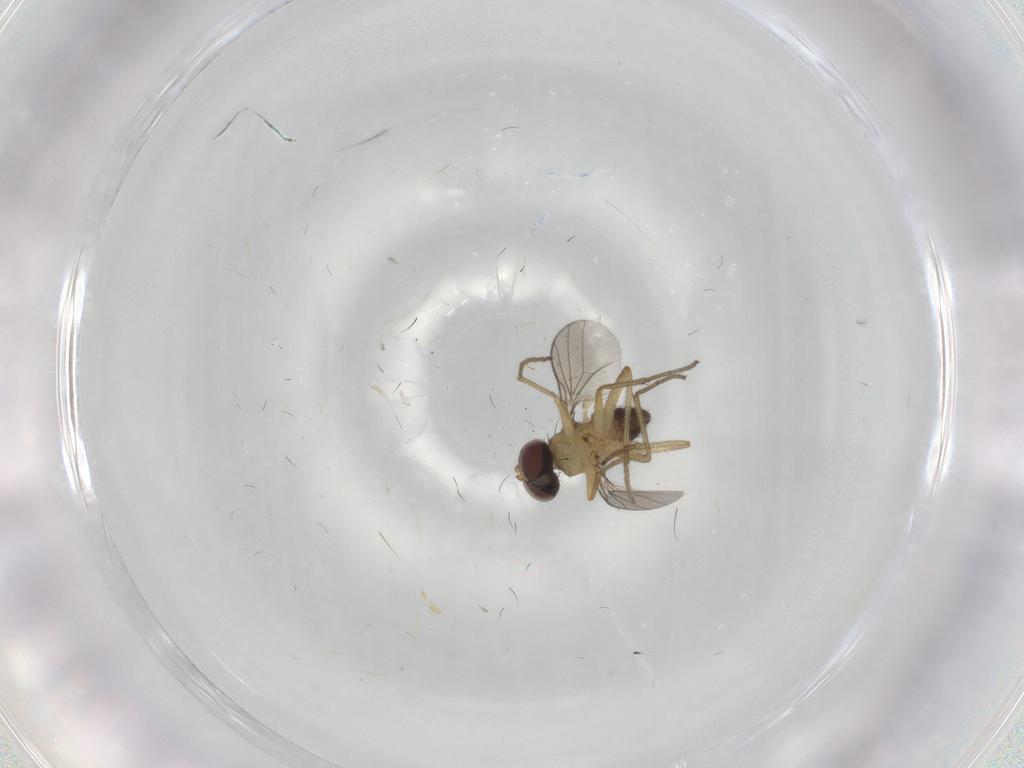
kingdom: Animalia
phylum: Arthropoda
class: Insecta
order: Diptera
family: Dolichopodidae
